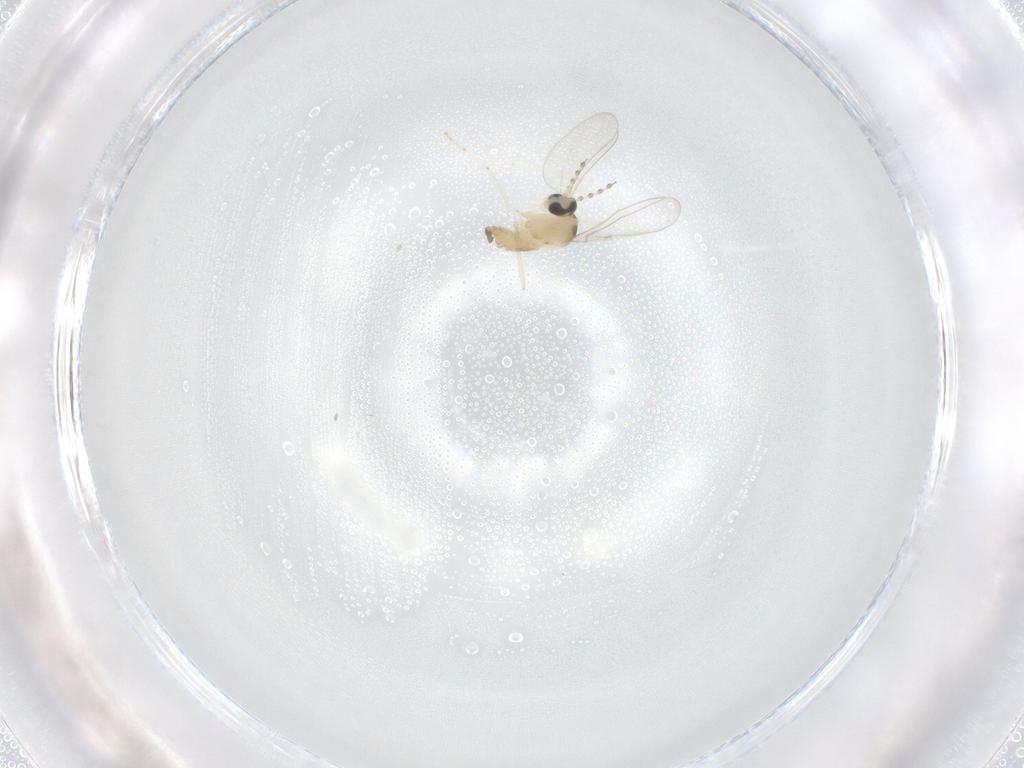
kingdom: Animalia
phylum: Arthropoda
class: Insecta
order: Diptera
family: Cecidomyiidae
